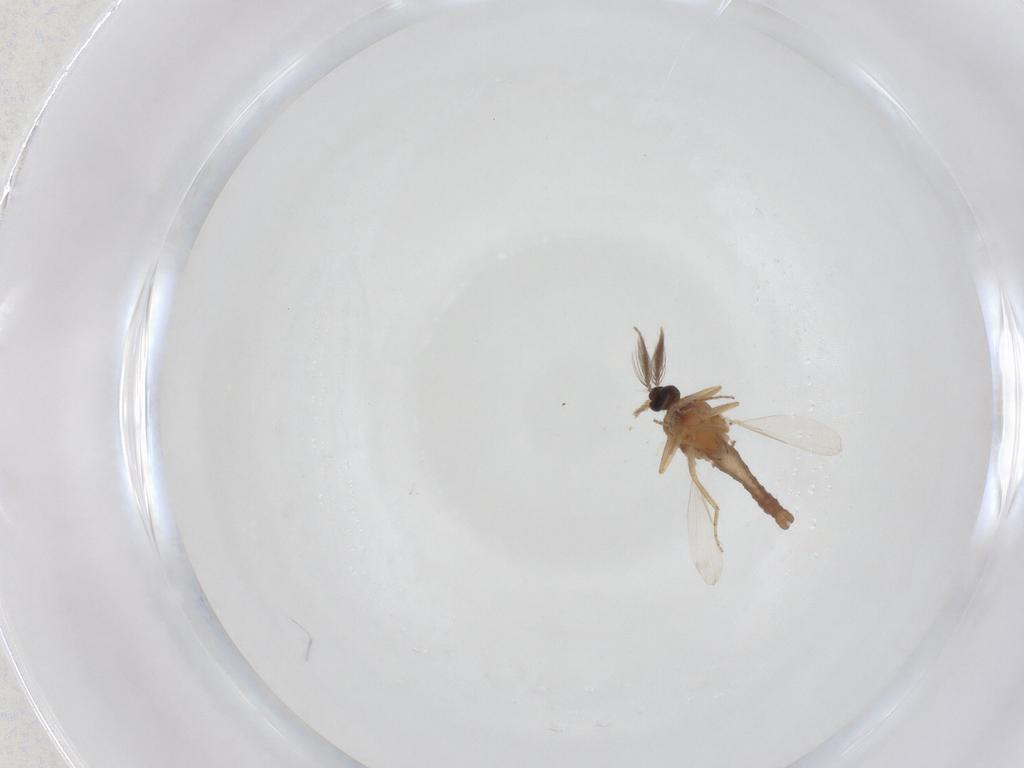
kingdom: Animalia
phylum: Arthropoda
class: Insecta
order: Diptera
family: Ceratopogonidae
